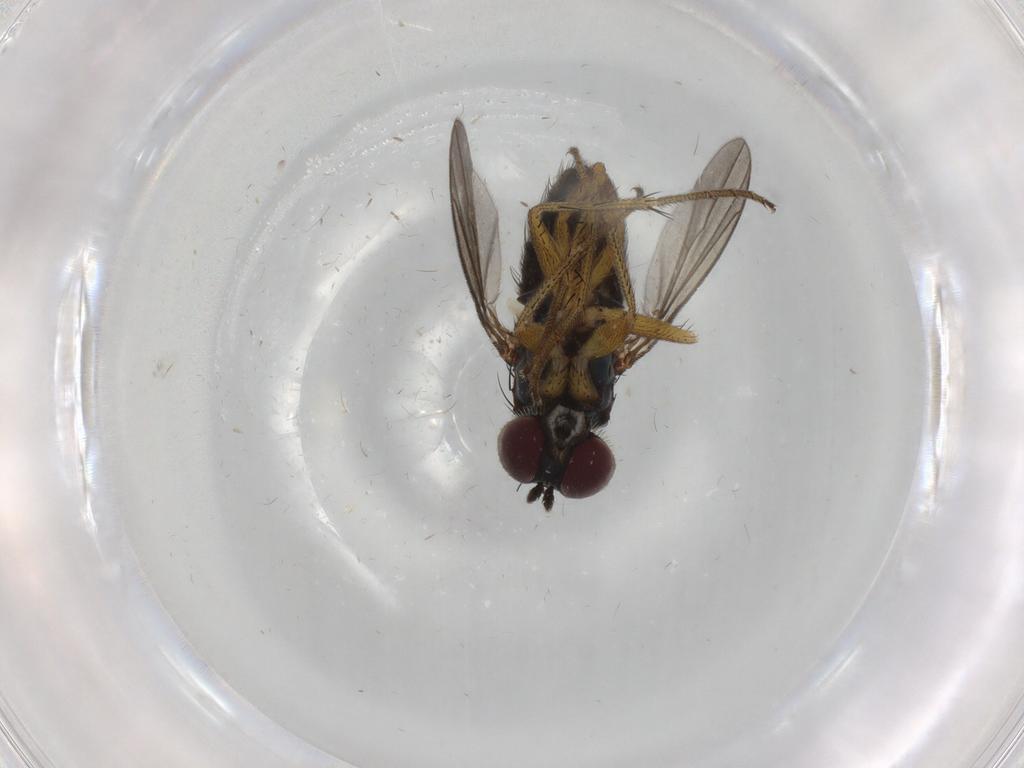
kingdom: Animalia
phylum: Arthropoda
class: Insecta
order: Diptera
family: Dolichopodidae
